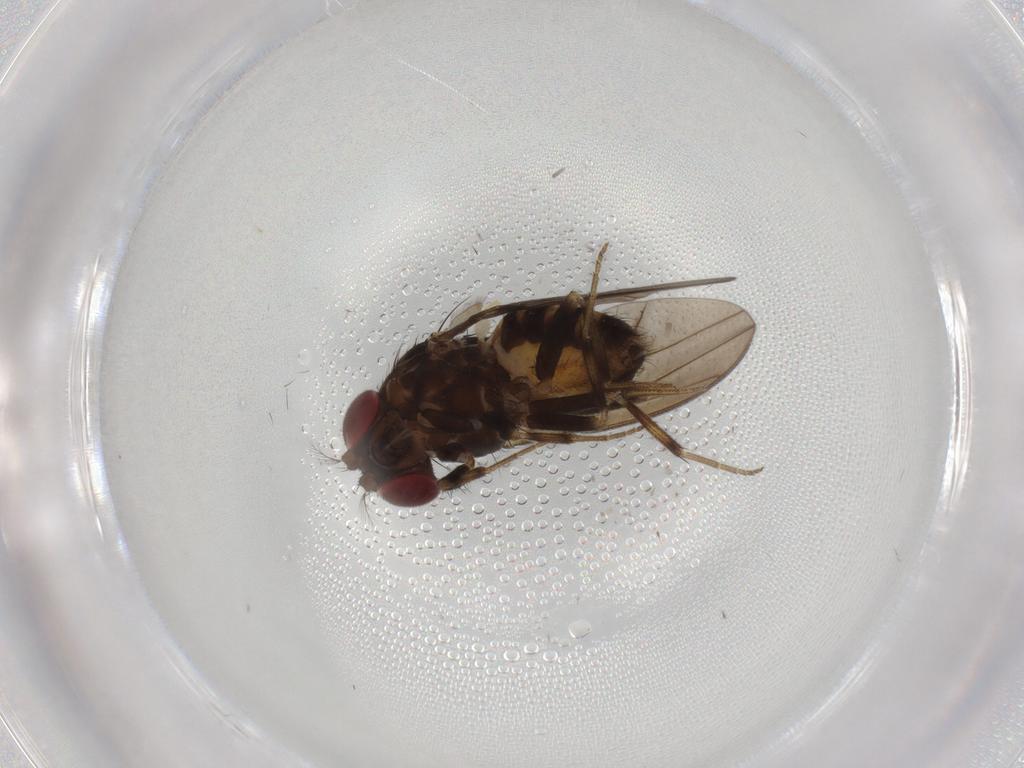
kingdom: Animalia
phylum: Arthropoda
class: Insecta
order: Diptera
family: Drosophilidae
